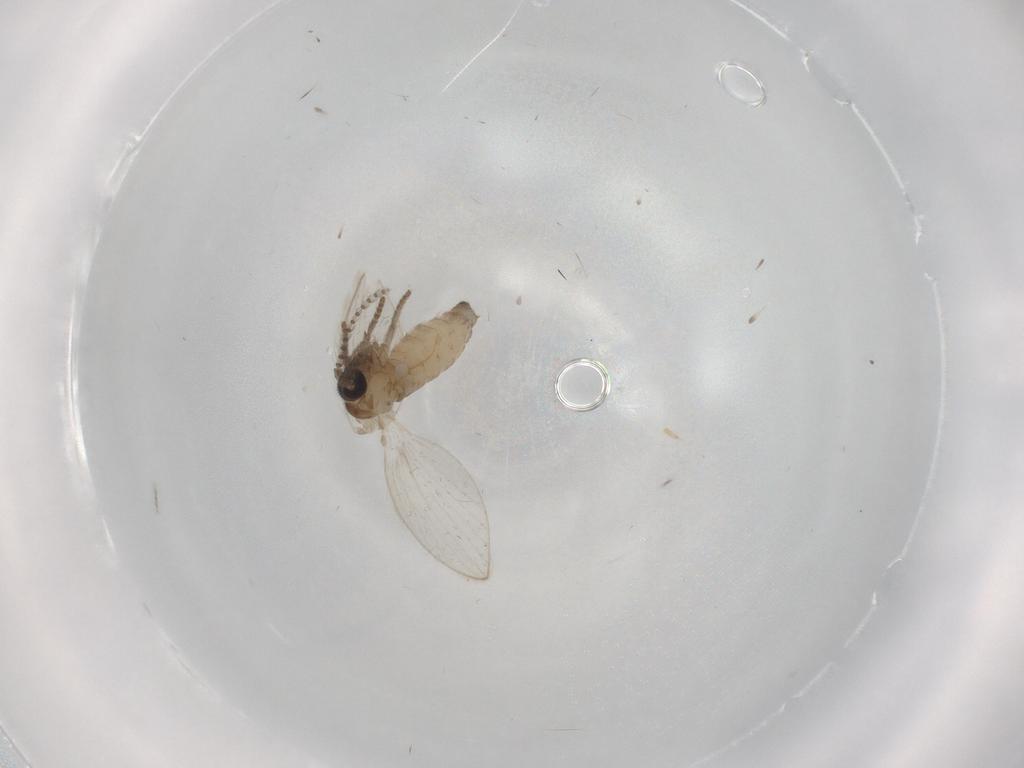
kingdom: Animalia
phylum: Arthropoda
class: Insecta
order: Diptera
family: Psychodidae
